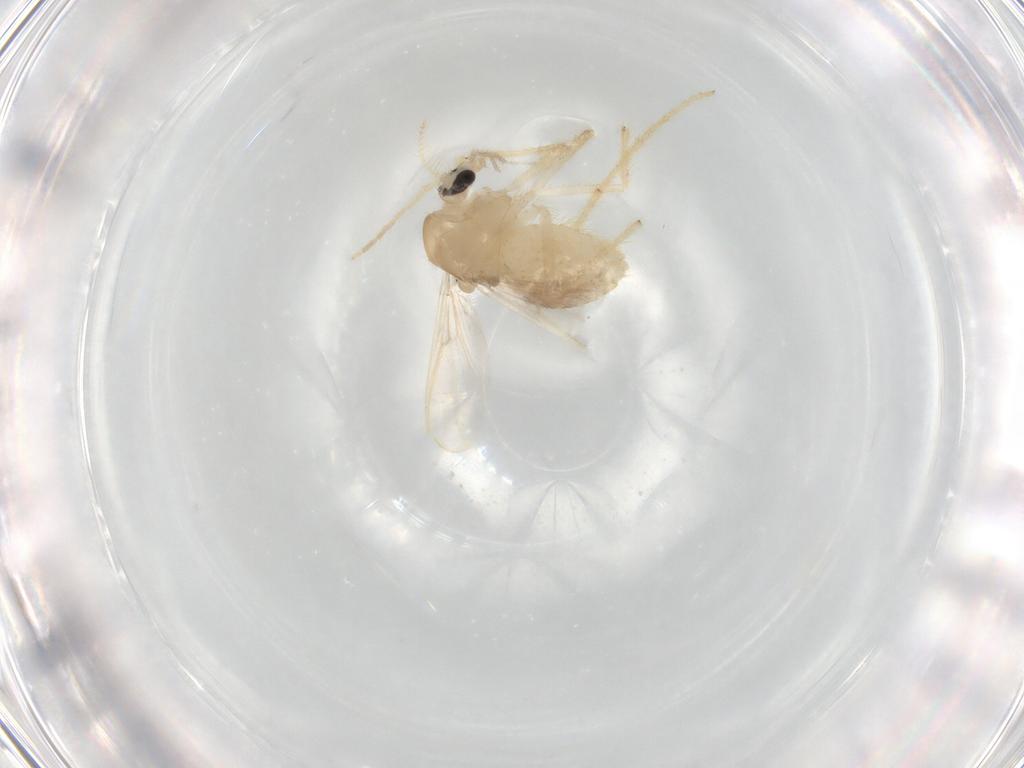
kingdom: Animalia
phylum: Arthropoda
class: Insecta
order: Diptera
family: Chironomidae
